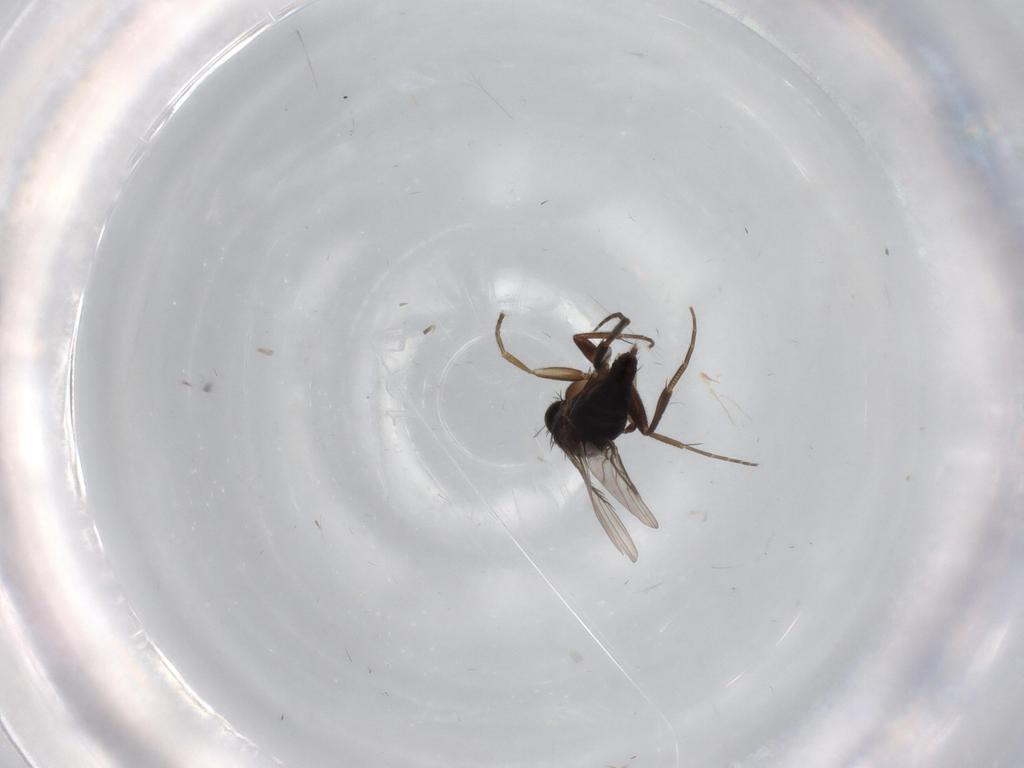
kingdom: Animalia
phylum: Arthropoda
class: Insecta
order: Diptera
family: Phoridae
